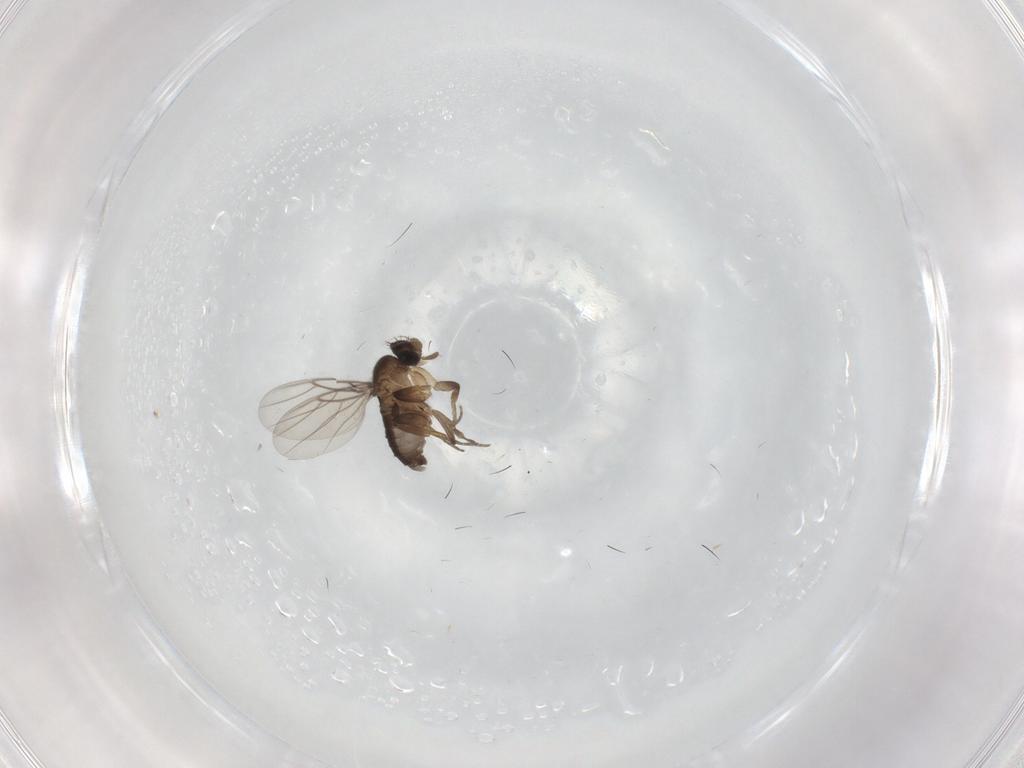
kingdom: Animalia
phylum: Arthropoda
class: Insecta
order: Diptera
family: Phoridae
